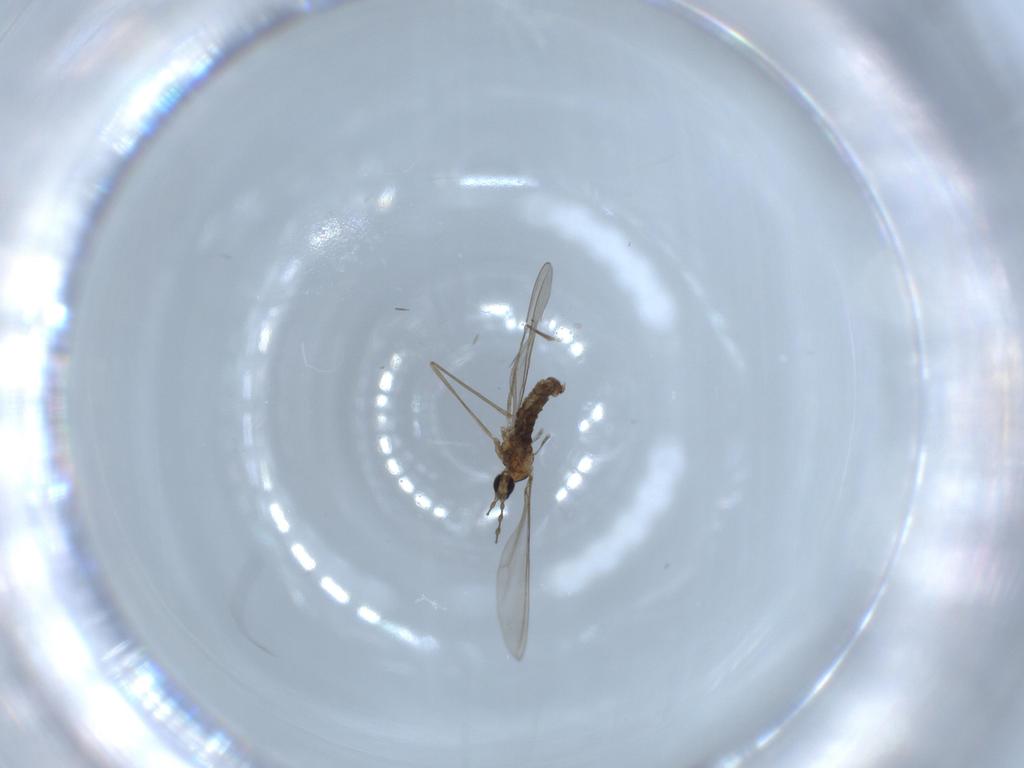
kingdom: Animalia
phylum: Arthropoda
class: Insecta
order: Diptera
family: Cecidomyiidae
